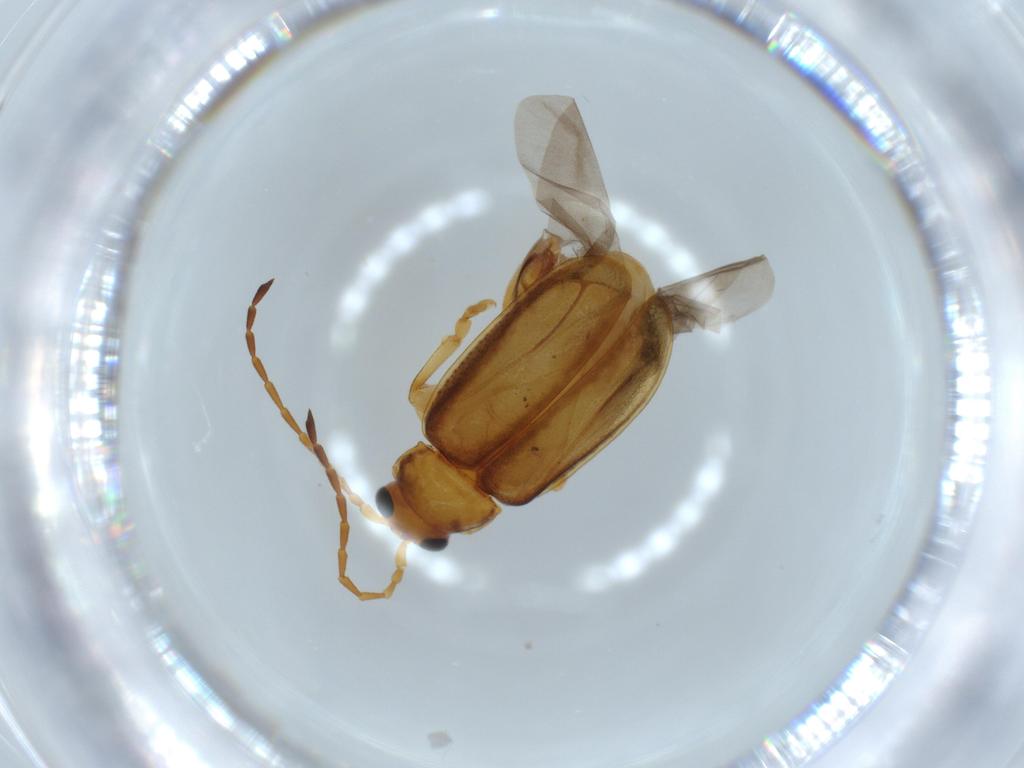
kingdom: Animalia
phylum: Arthropoda
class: Insecta
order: Coleoptera
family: Chrysomelidae
